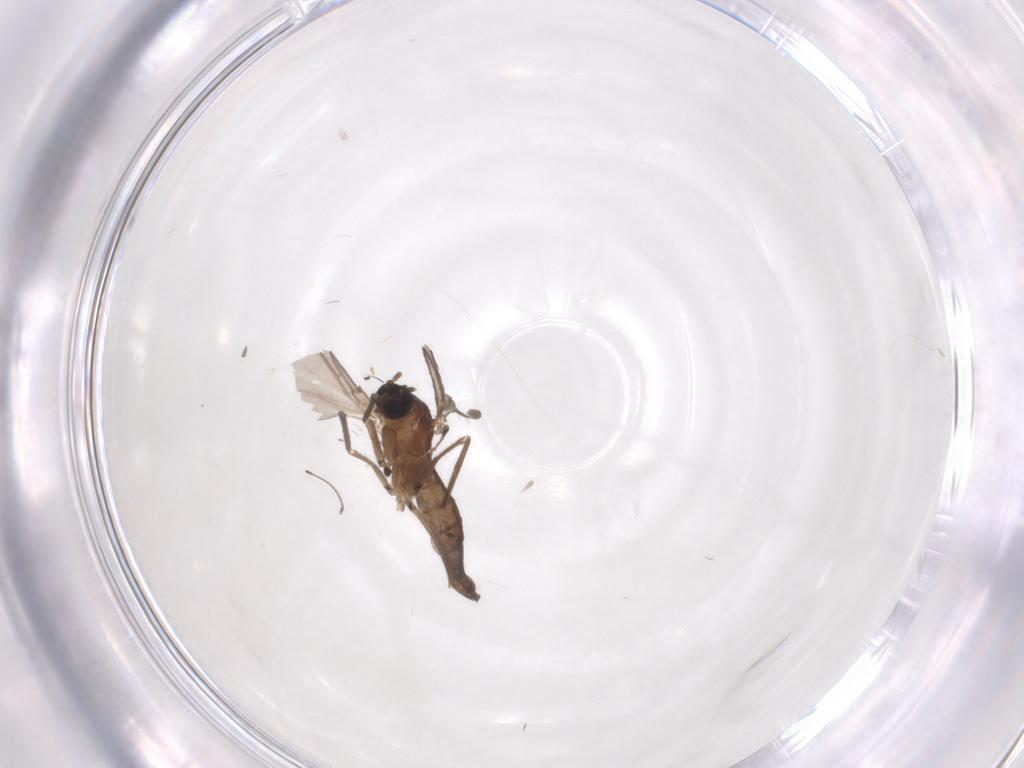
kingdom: Animalia
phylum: Arthropoda
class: Insecta
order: Diptera
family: Chironomidae
